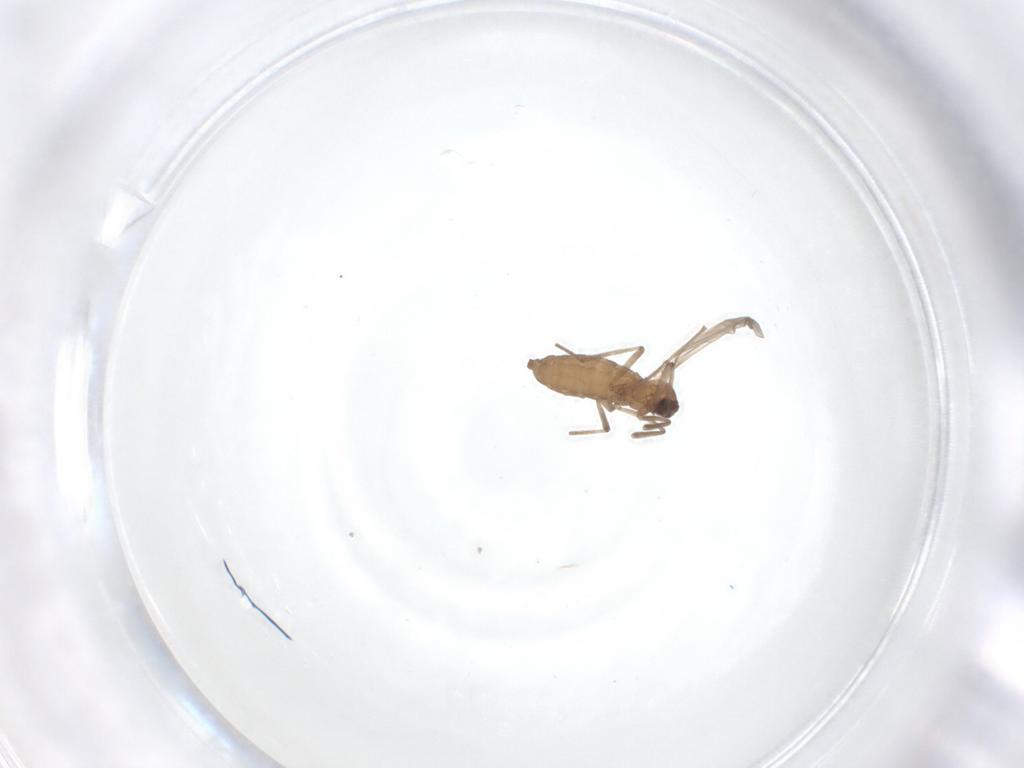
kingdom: Animalia
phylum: Arthropoda
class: Insecta
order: Diptera
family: Cecidomyiidae
